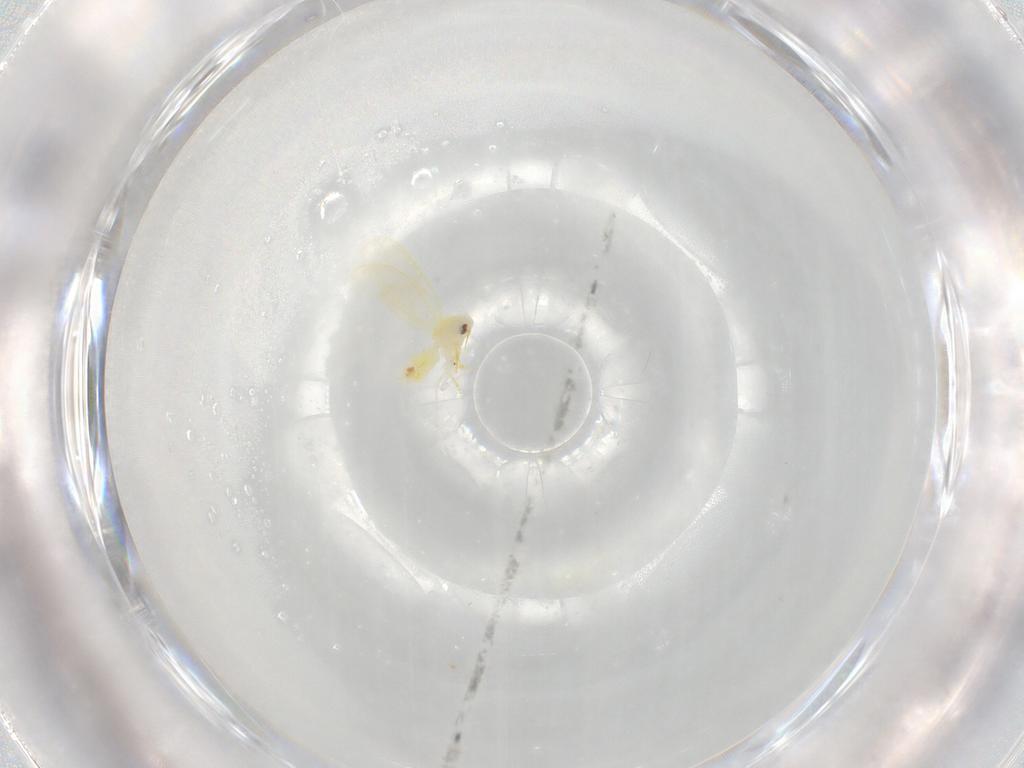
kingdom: Animalia
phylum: Arthropoda
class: Insecta
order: Hemiptera
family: Aleyrodidae
